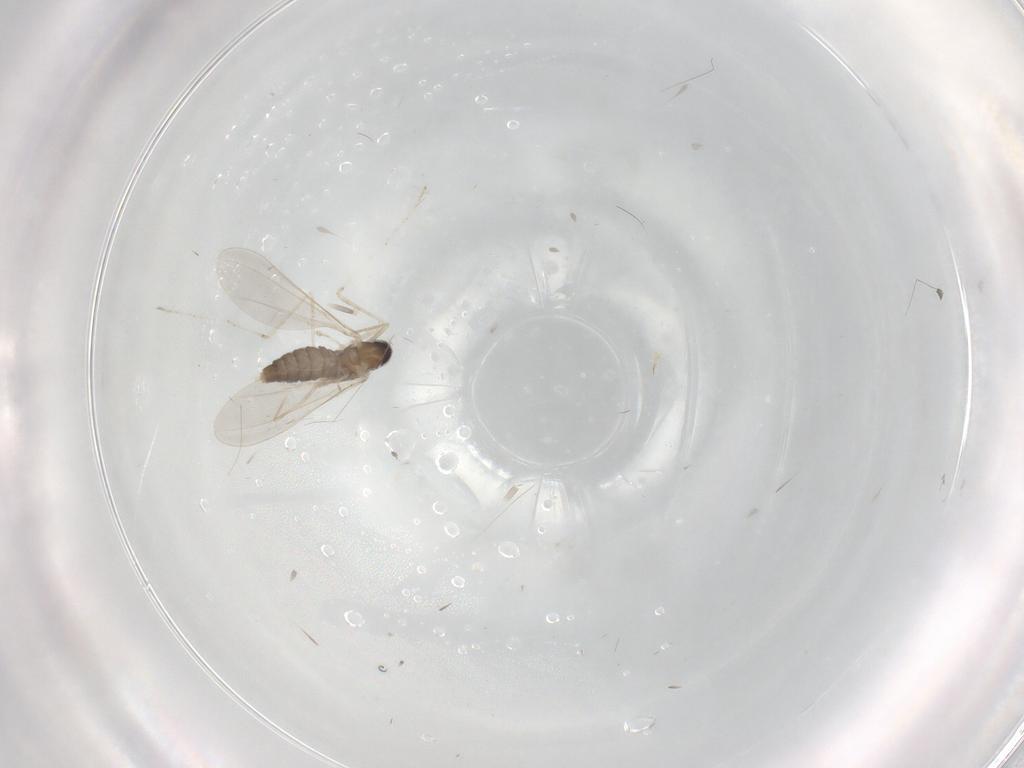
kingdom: Animalia
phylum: Arthropoda
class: Insecta
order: Diptera
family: Cecidomyiidae
